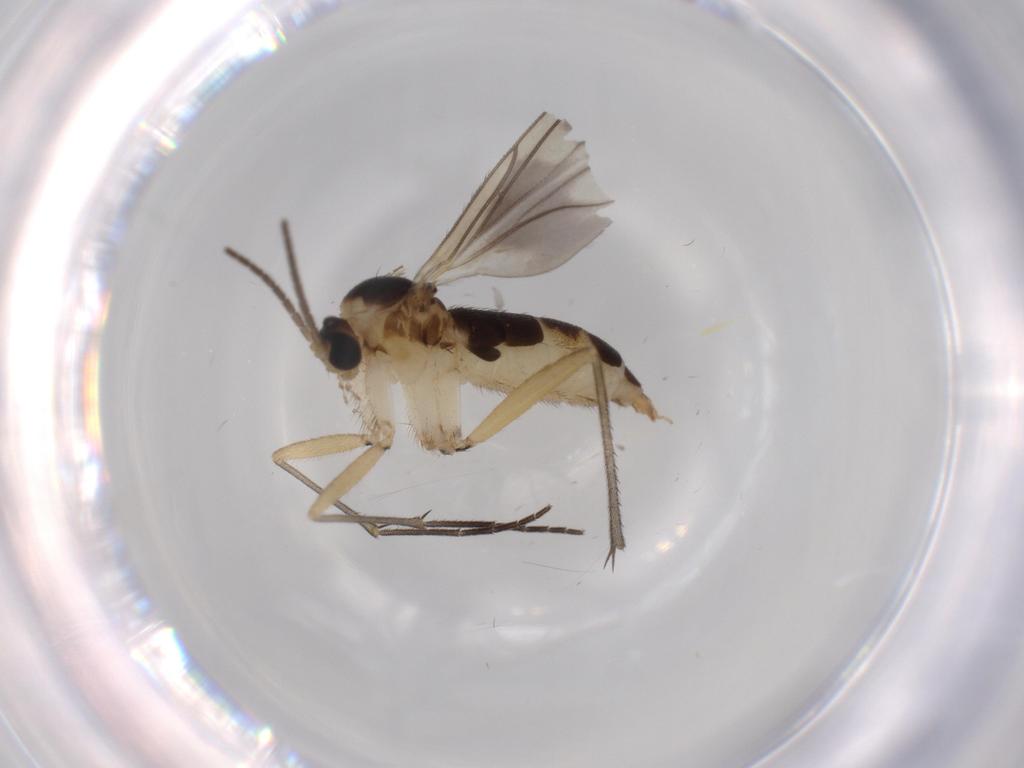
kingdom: Animalia
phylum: Arthropoda
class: Insecta
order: Diptera
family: Sciaridae
